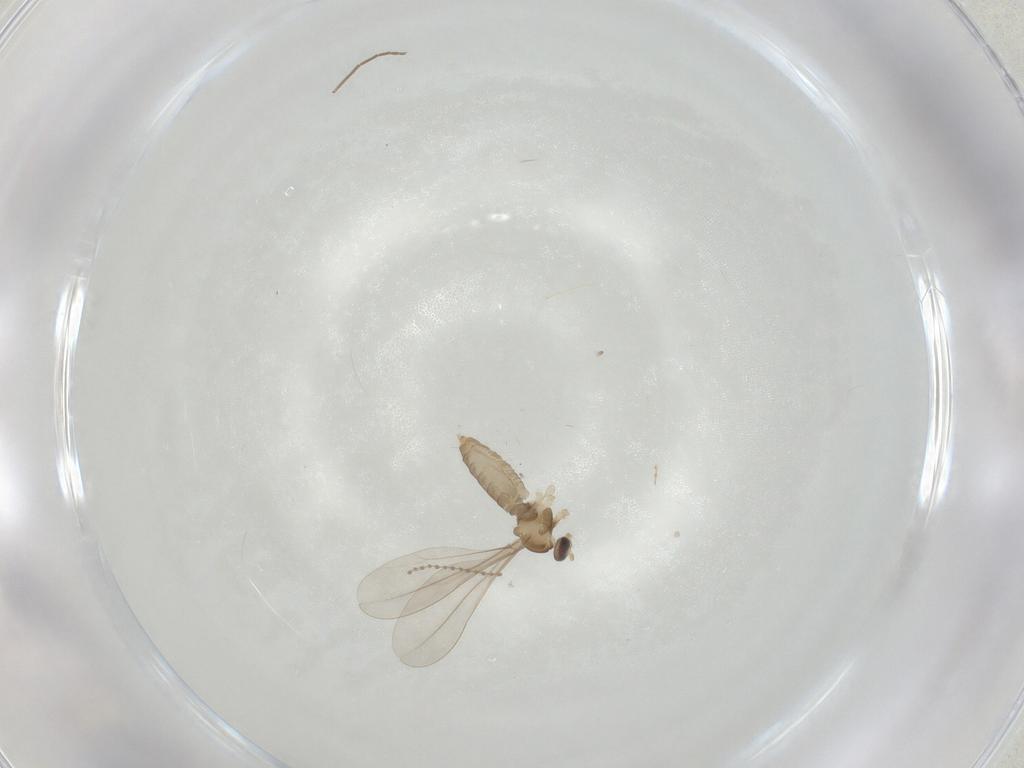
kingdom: Animalia
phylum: Arthropoda
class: Insecta
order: Diptera
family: Cecidomyiidae
